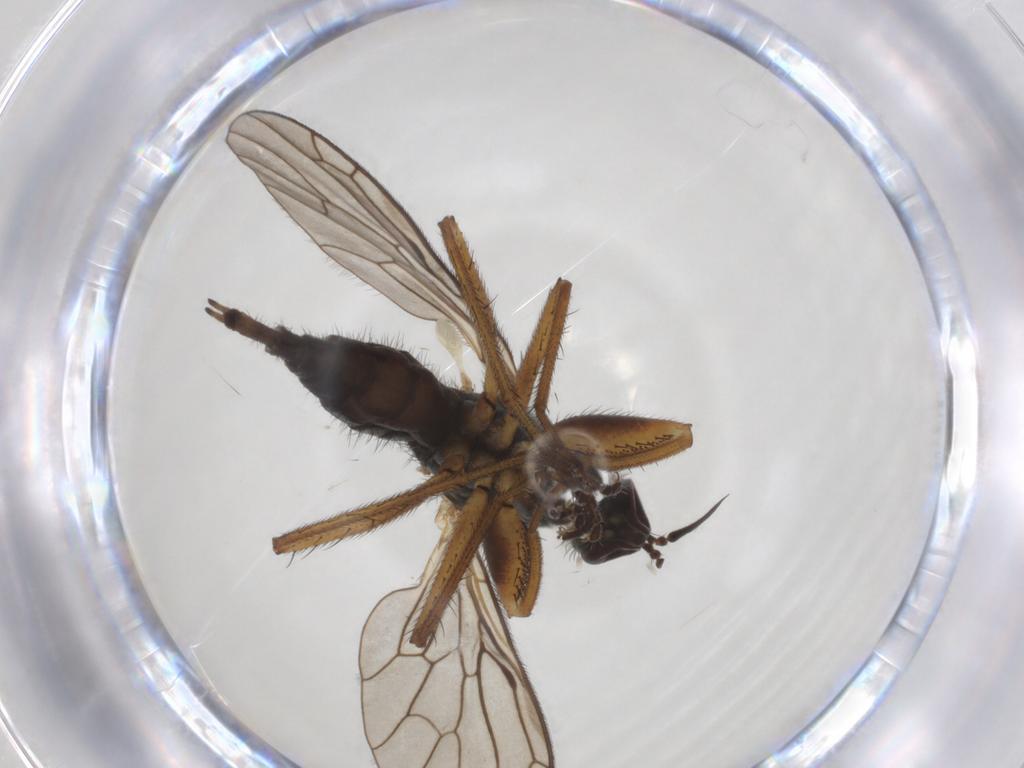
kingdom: Animalia
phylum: Arthropoda
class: Insecta
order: Diptera
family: Empididae
